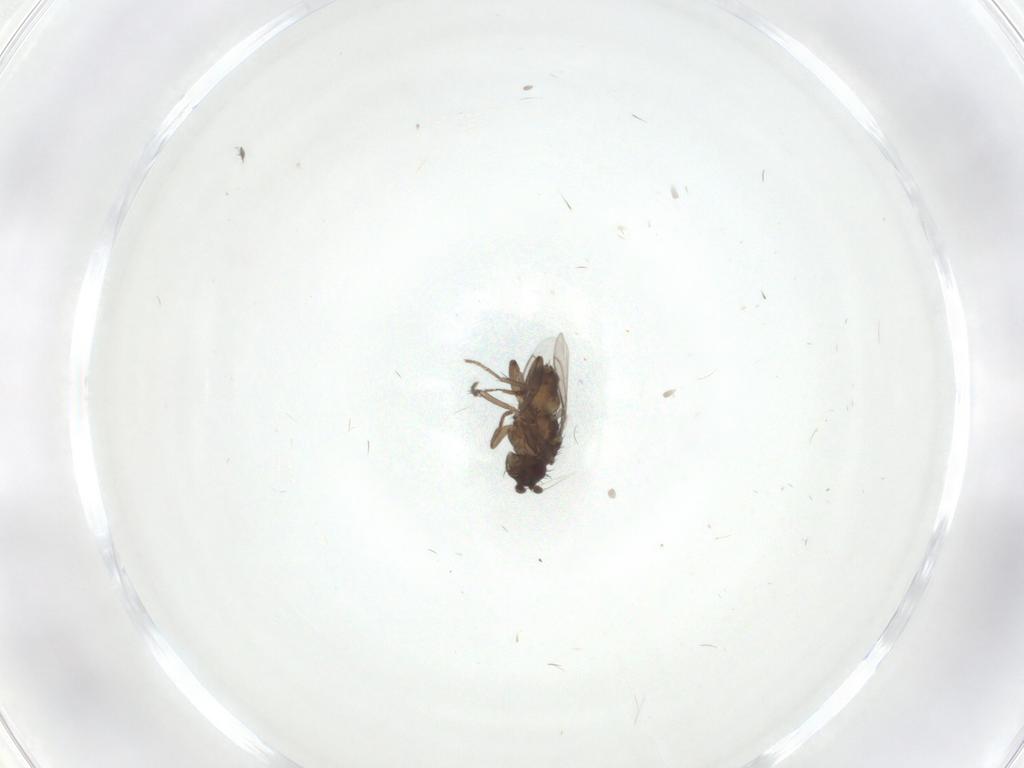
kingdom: Animalia
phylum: Arthropoda
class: Insecta
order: Diptera
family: Sphaeroceridae
